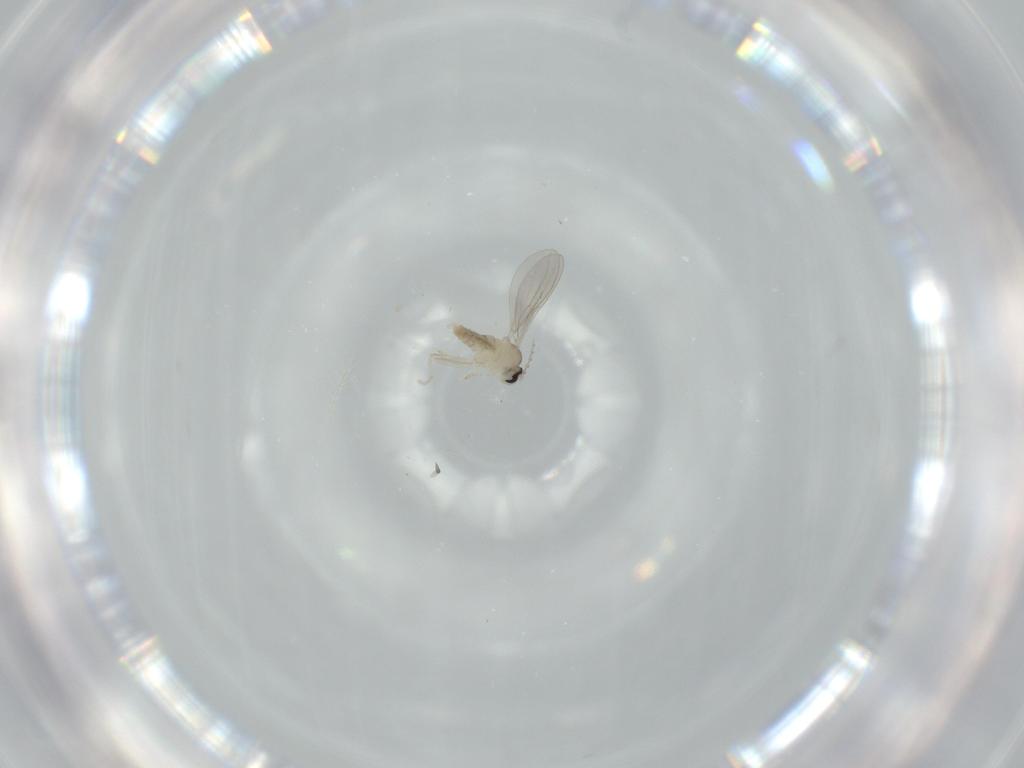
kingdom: Animalia
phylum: Arthropoda
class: Insecta
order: Diptera
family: Cecidomyiidae
